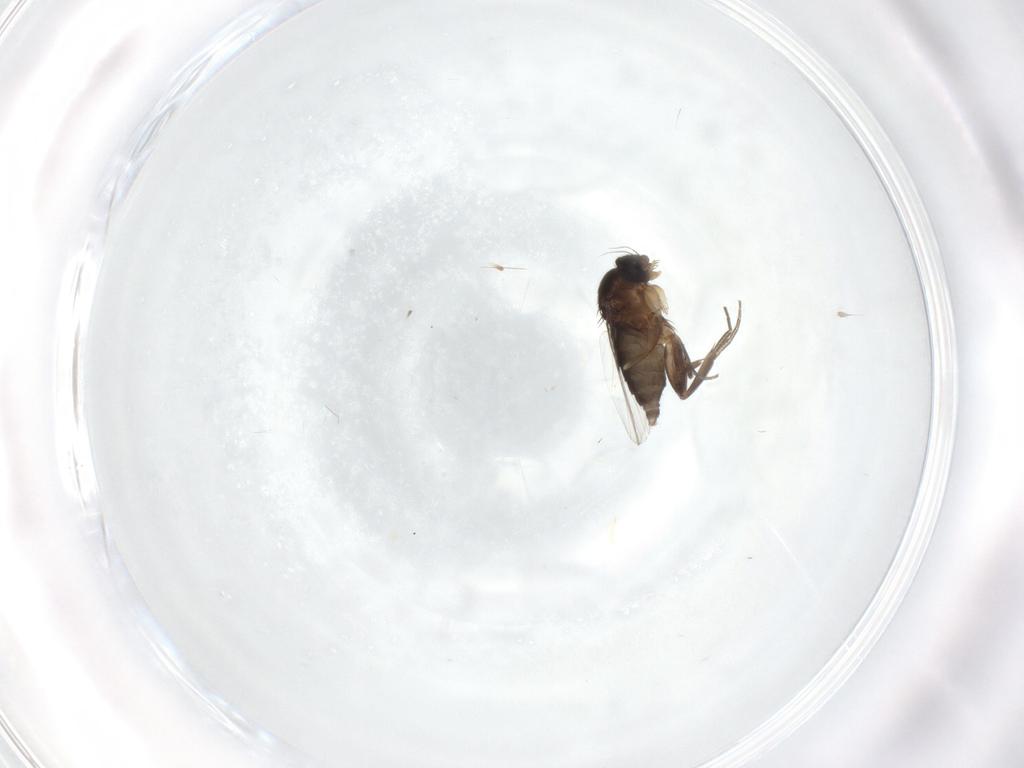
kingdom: Animalia
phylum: Arthropoda
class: Insecta
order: Diptera
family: Phoridae
